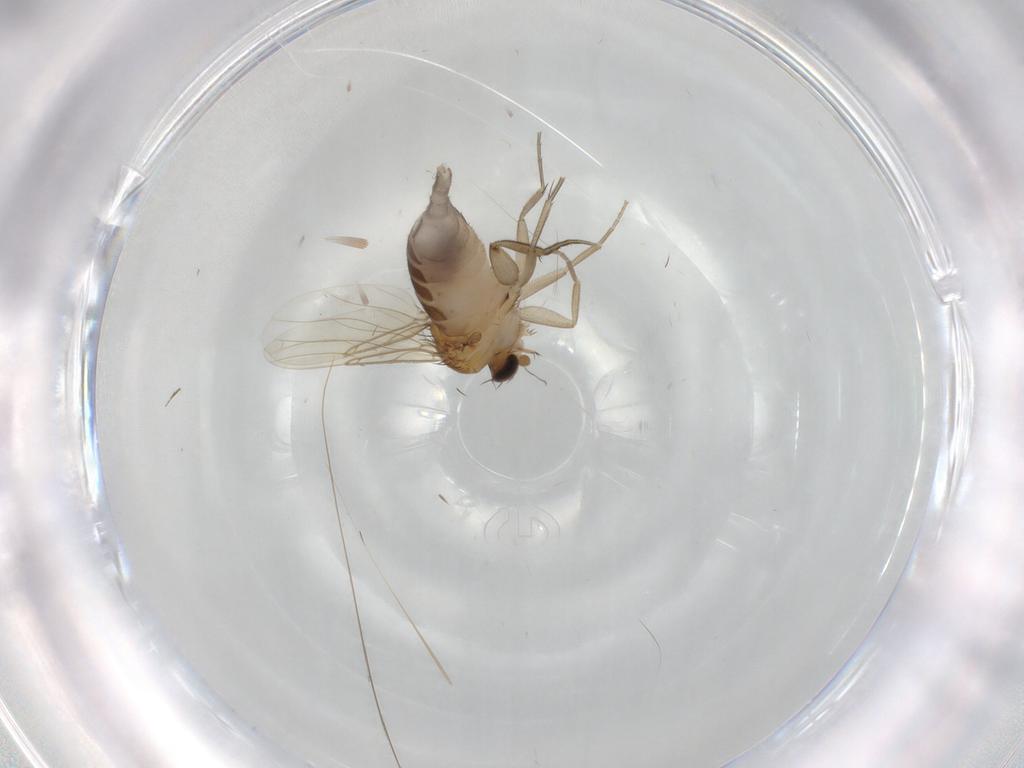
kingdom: Animalia
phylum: Arthropoda
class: Insecta
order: Diptera
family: Phoridae
